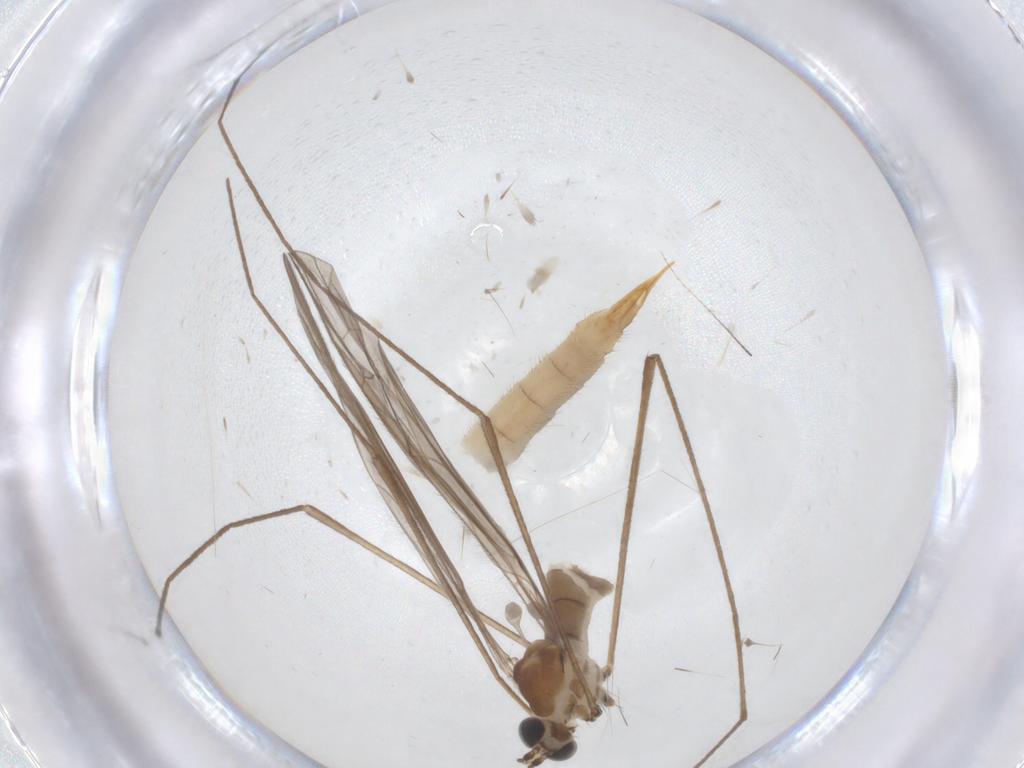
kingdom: Animalia
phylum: Arthropoda
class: Insecta
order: Diptera
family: Limoniidae
